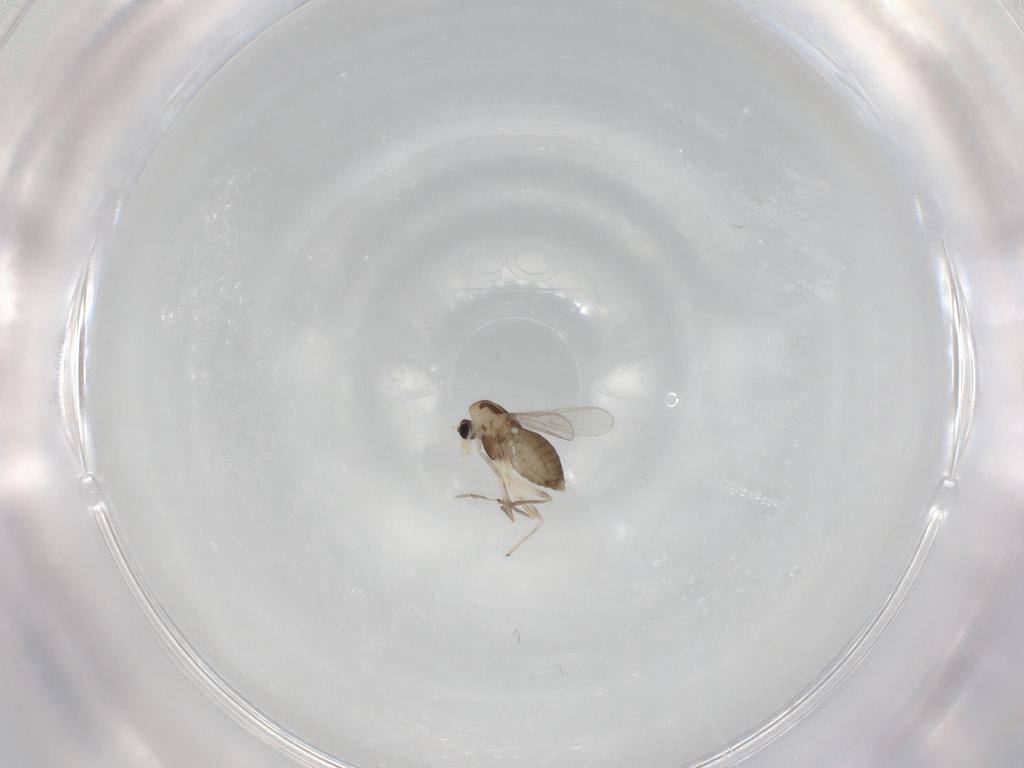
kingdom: Animalia
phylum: Arthropoda
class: Insecta
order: Diptera
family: Chironomidae
